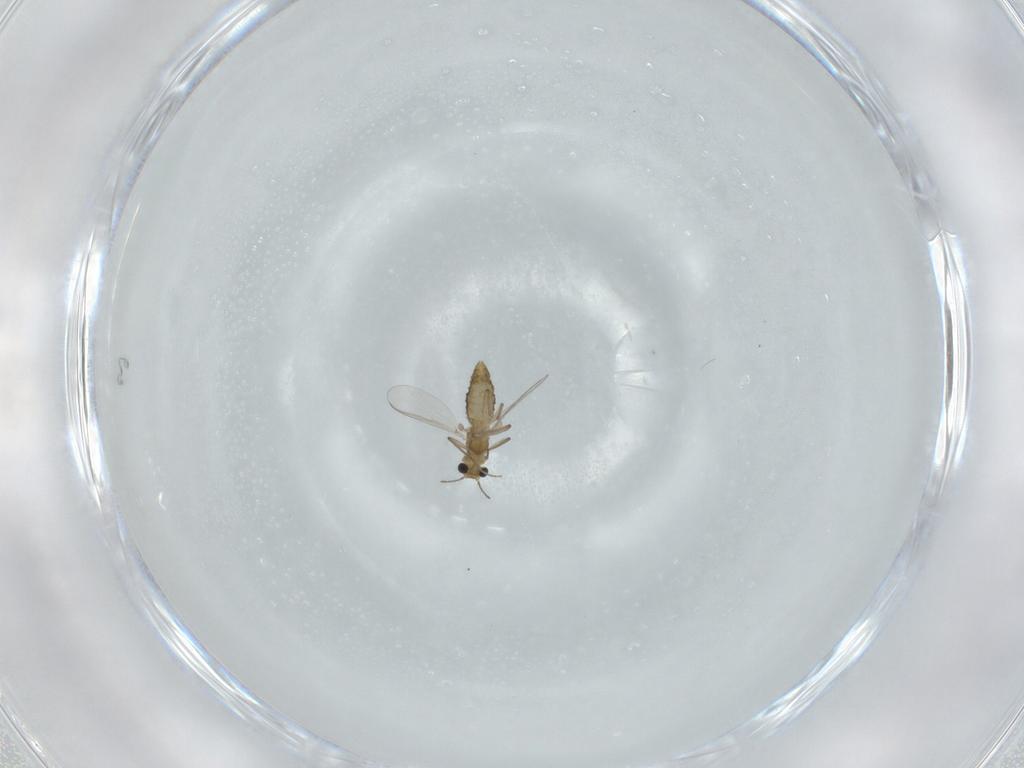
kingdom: Animalia
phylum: Arthropoda
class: Insecta
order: Diptera
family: Chironomidae
